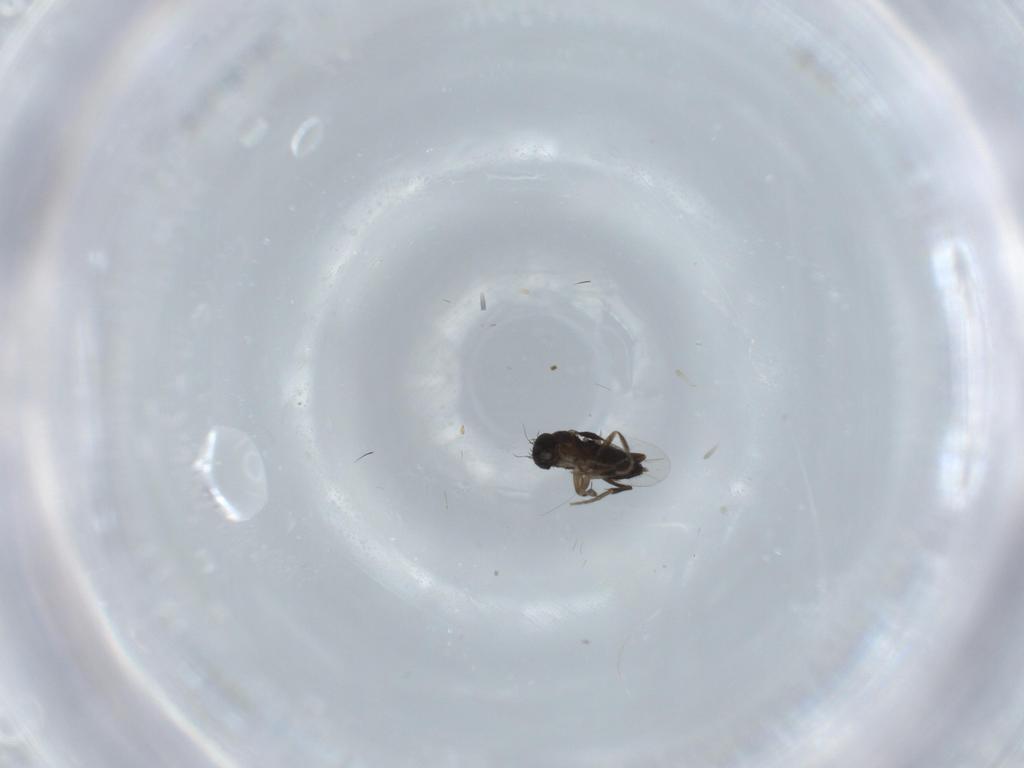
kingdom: Animalia
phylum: Arthropoda
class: Insecta
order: Diptera
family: Phoridae
